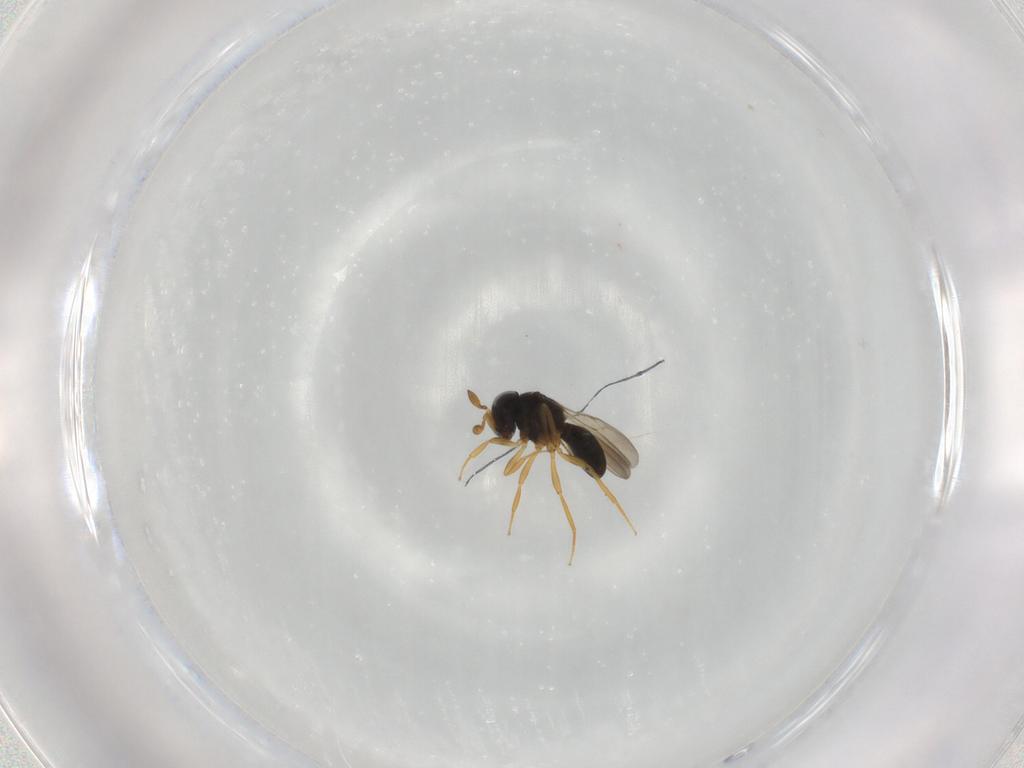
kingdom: Animalia
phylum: Arthropoda
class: Insecta
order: Hymenoptera
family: Scelionidae
